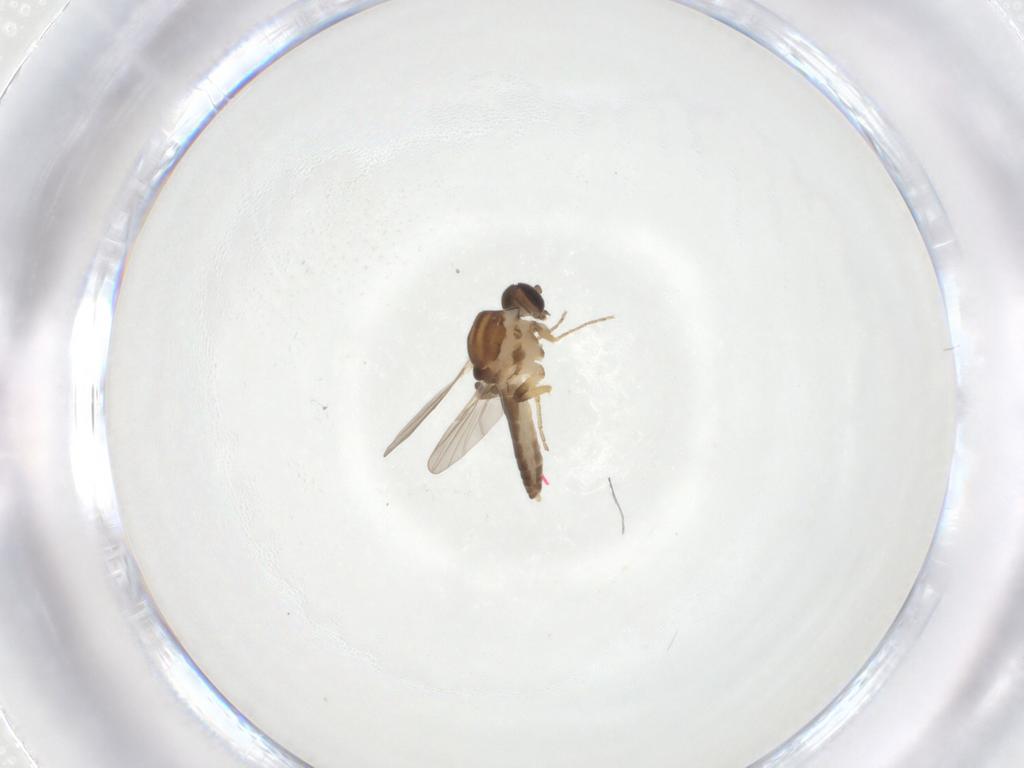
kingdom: Animalia
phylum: Arthropoda
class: Insecta
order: Diptera
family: Ceratopogonidae
